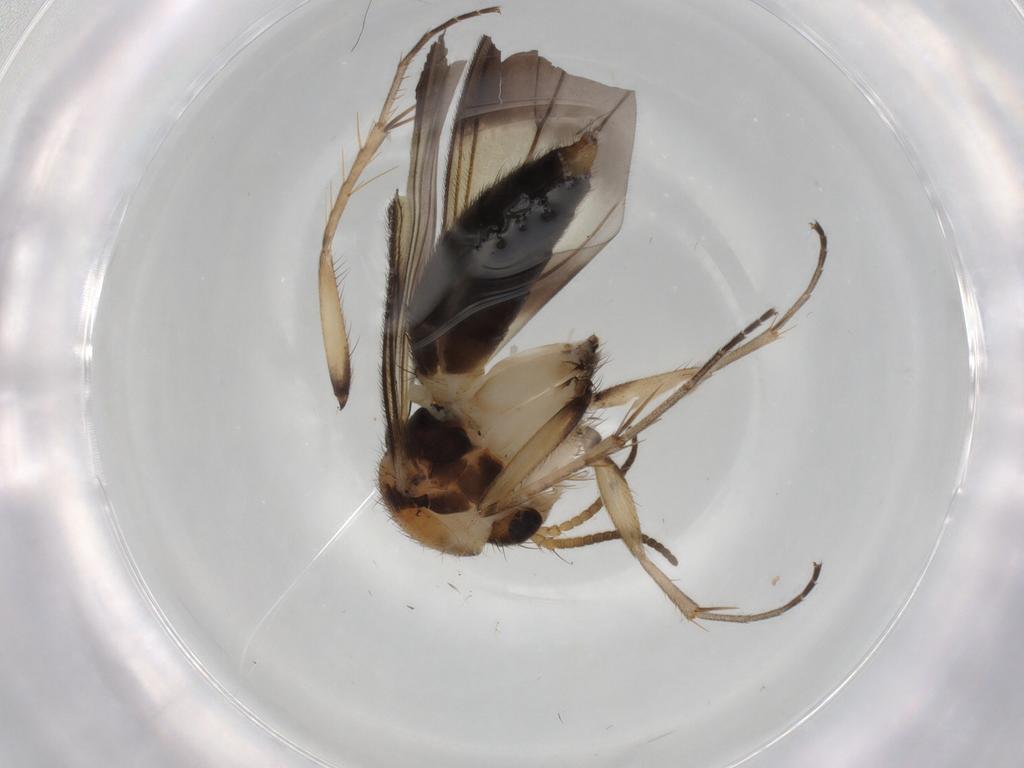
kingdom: Animalia
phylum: Arthropoda
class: Insecta
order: Diptera
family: Mycetophilidae
